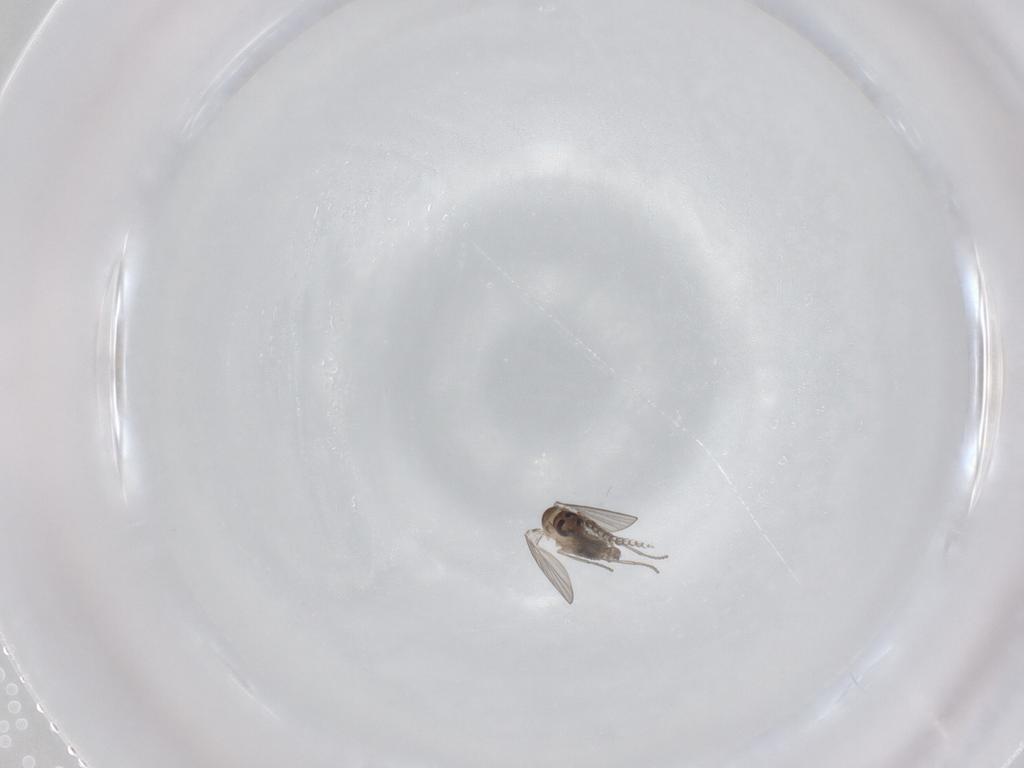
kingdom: Animalia
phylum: Arthropoda
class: Insecta
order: Diptera
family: Psychodidae
